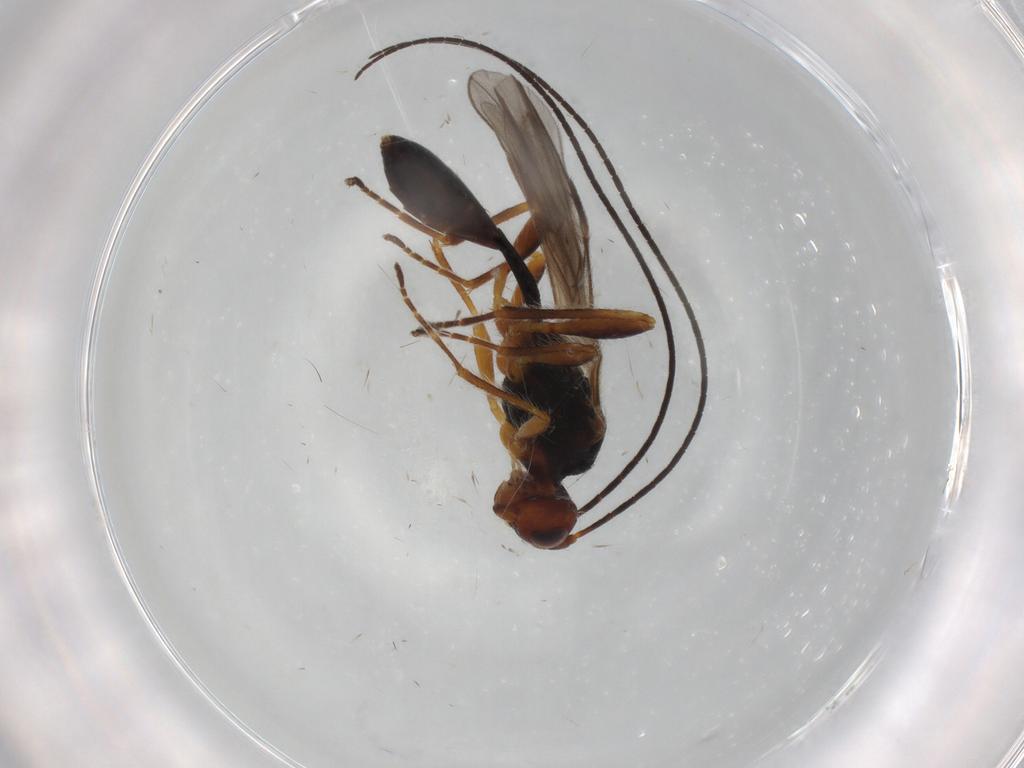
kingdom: Animalia
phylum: Arthropoda
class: Insecta
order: Hymenoptera
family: Braconidae
